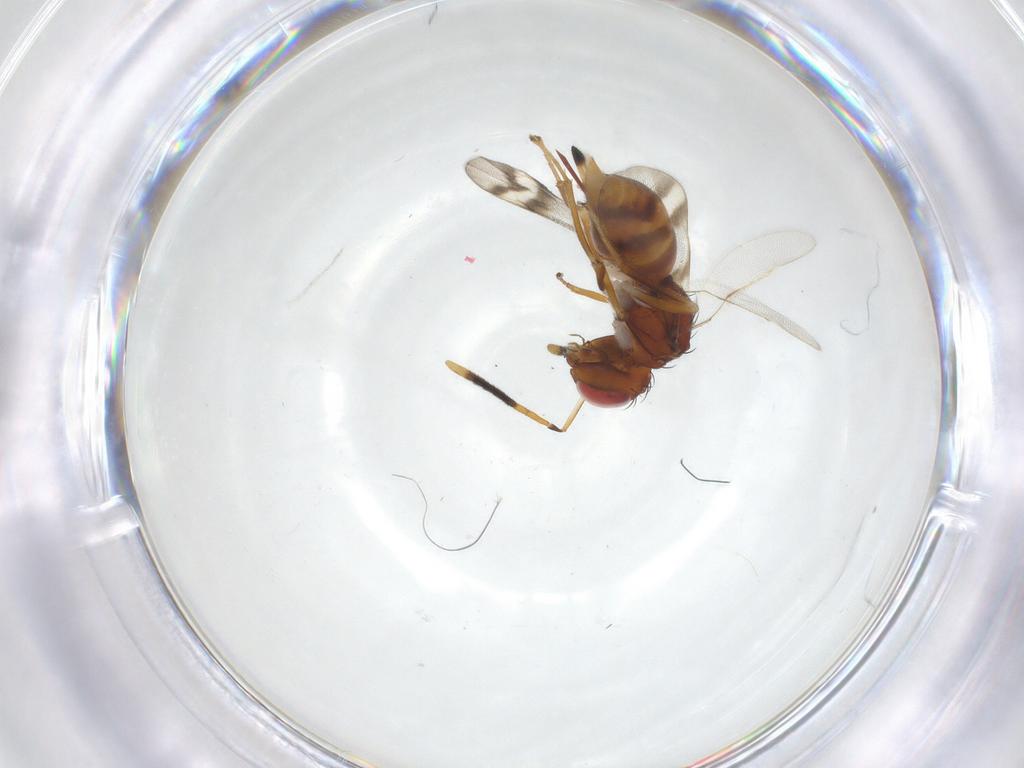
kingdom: Animalia
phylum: Arthropoda
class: Insecta
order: Hymenoptera
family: Diparidae
